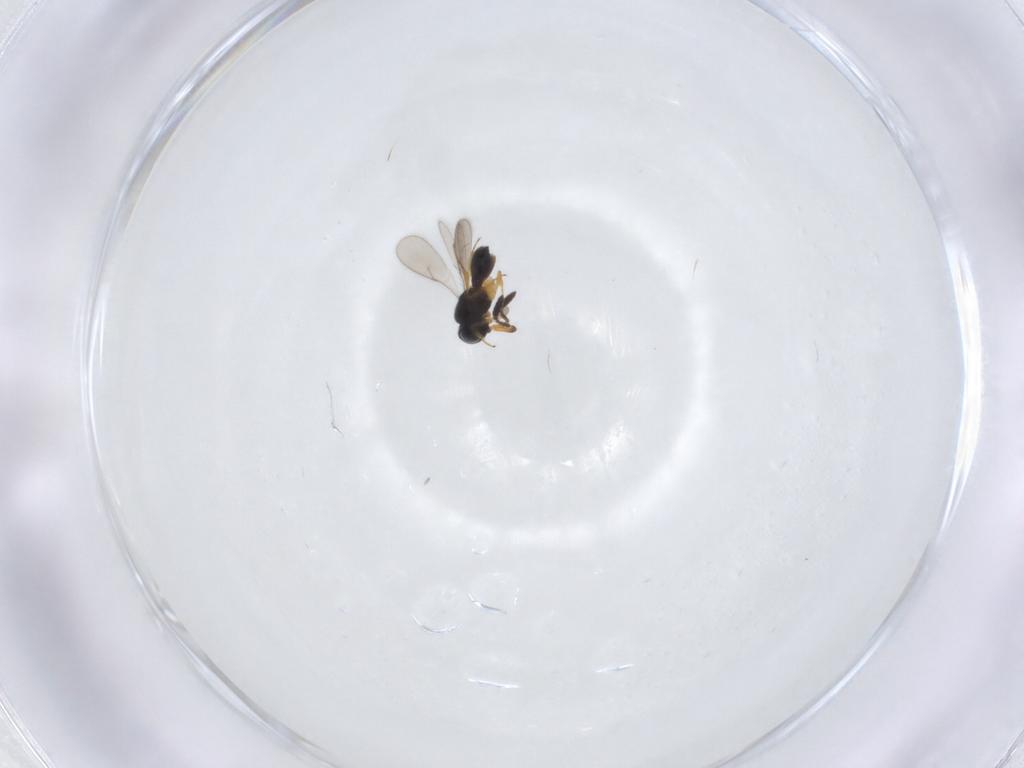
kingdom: Animalia
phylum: Arthropoda
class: Insecta
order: Hymenoptera
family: Scelionidae
